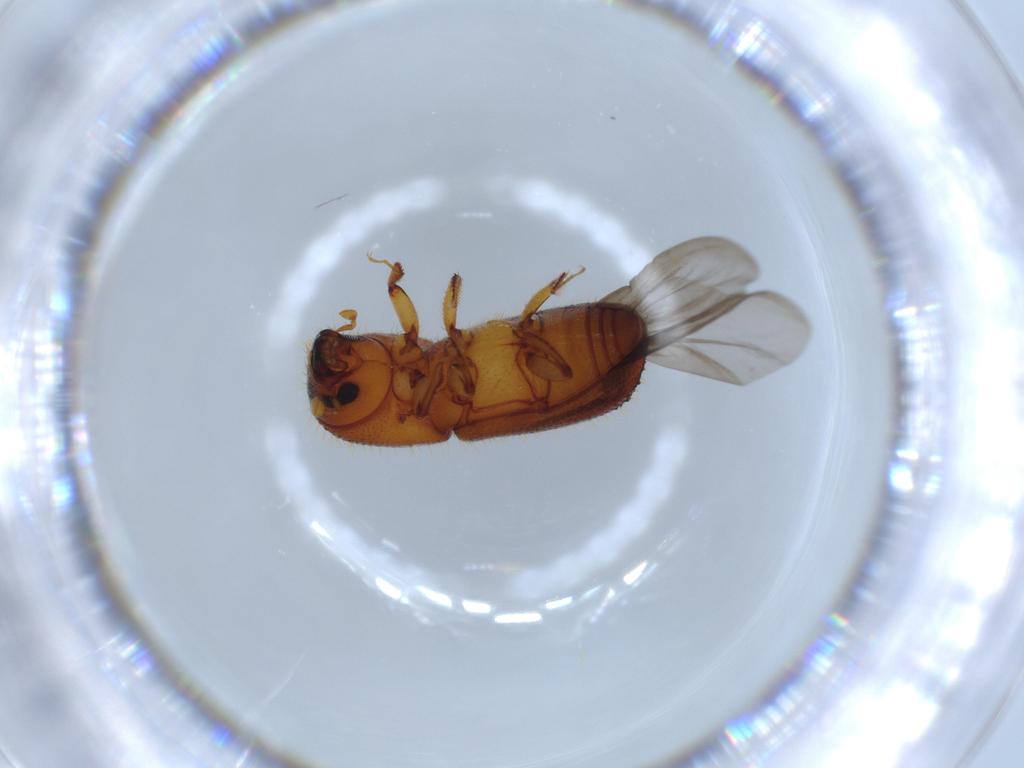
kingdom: Animalia
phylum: Arthropoda
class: Insecta
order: Coleoptera
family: Curculionidae
